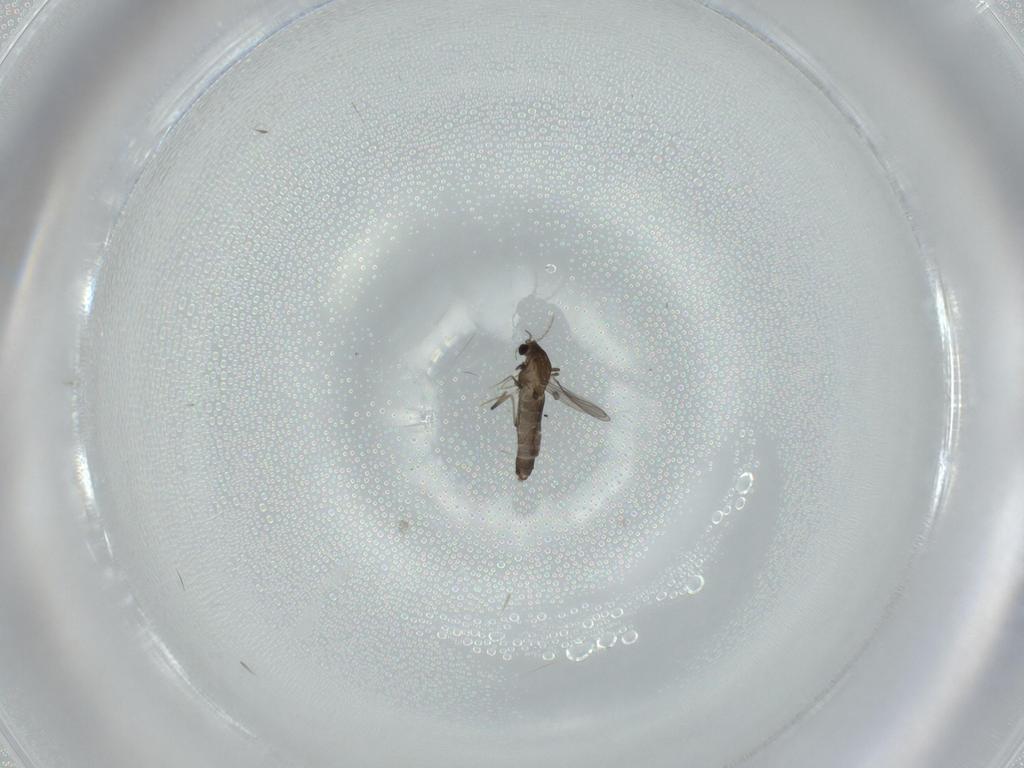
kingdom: Animalia
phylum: Arthropoda
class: Insecta
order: Diptera
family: Chironomidae
